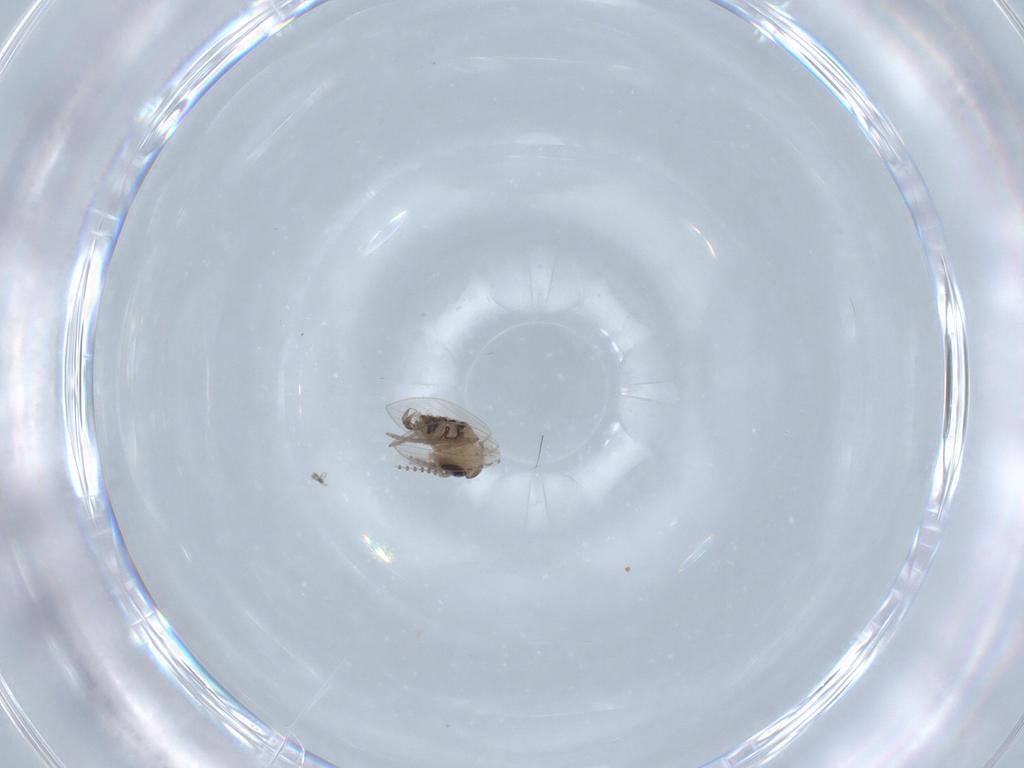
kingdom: Animalia
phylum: Arthropoda
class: Insecta
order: Diptera
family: Psychodidae
